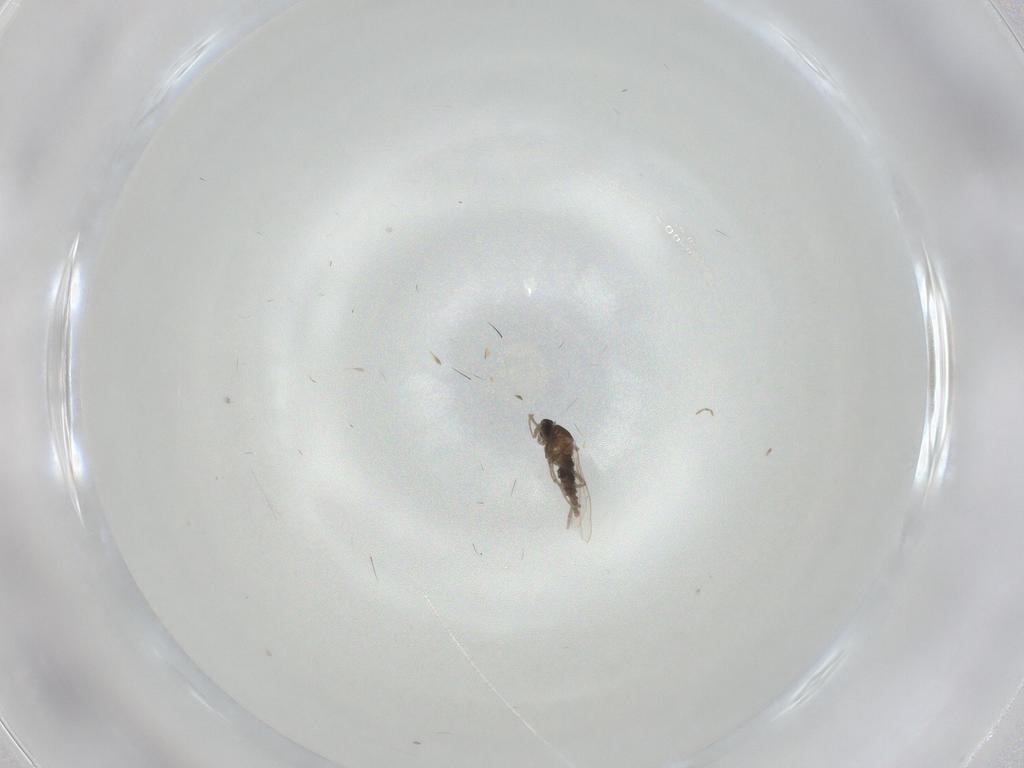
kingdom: Animalia
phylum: Arthropoda
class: Insecta
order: Diptera
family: Cecidomyiidae
